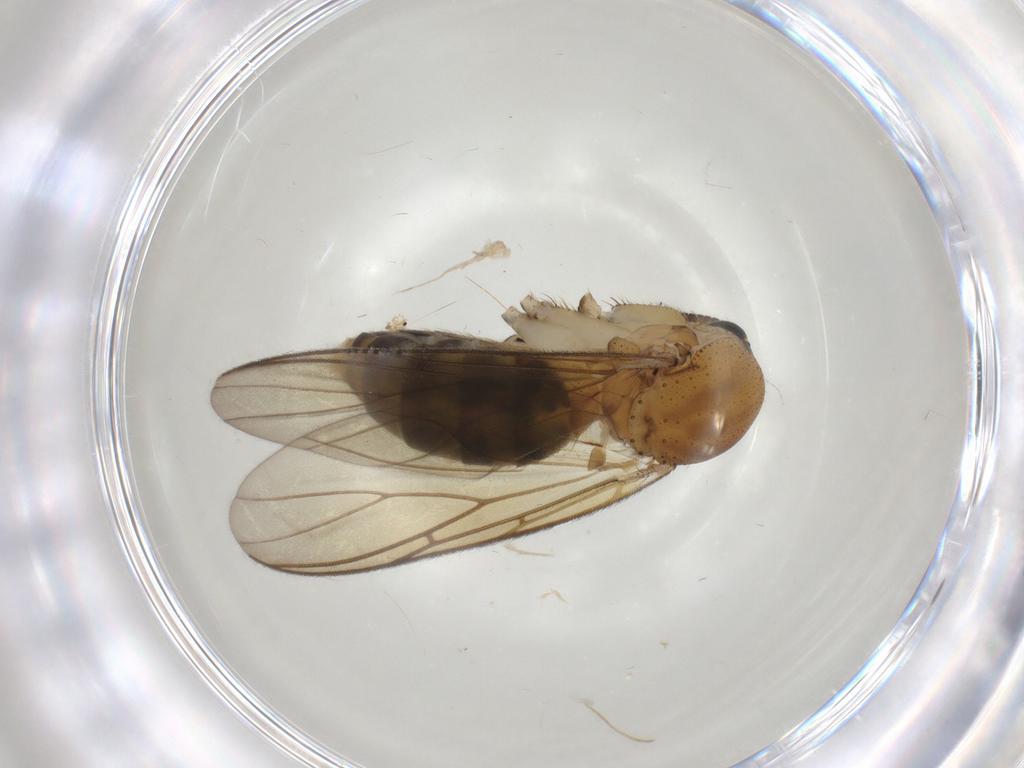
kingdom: Animalia
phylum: Arthropoda
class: Insecta
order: Diptera
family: Mycetophilidae
